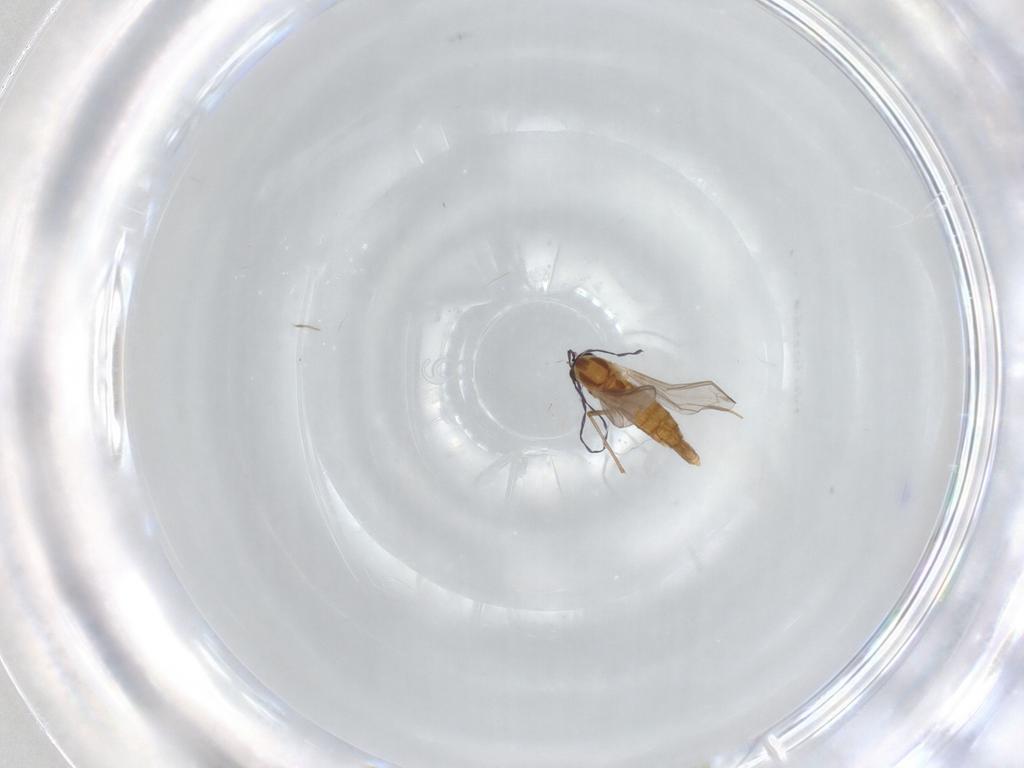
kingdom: Animalia
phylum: Arthropoda
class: Insecta
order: Diptera
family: Chironomidae
